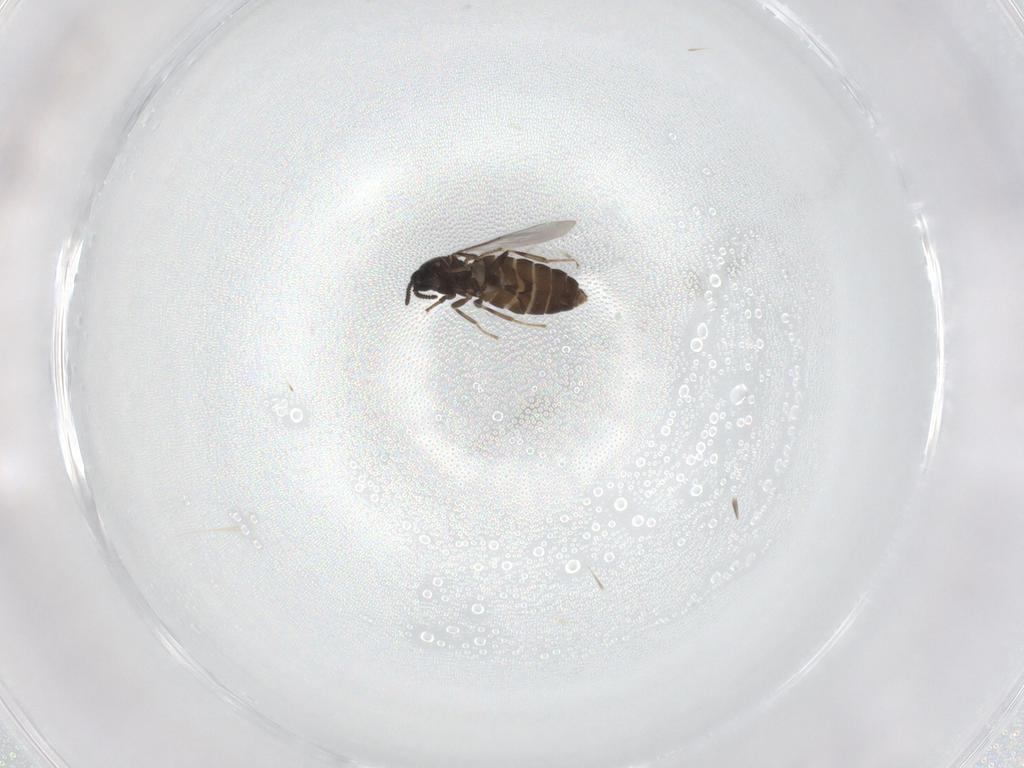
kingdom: Animalia
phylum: Arthropoda
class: Insecta
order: Diptera
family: Scatopsidae
